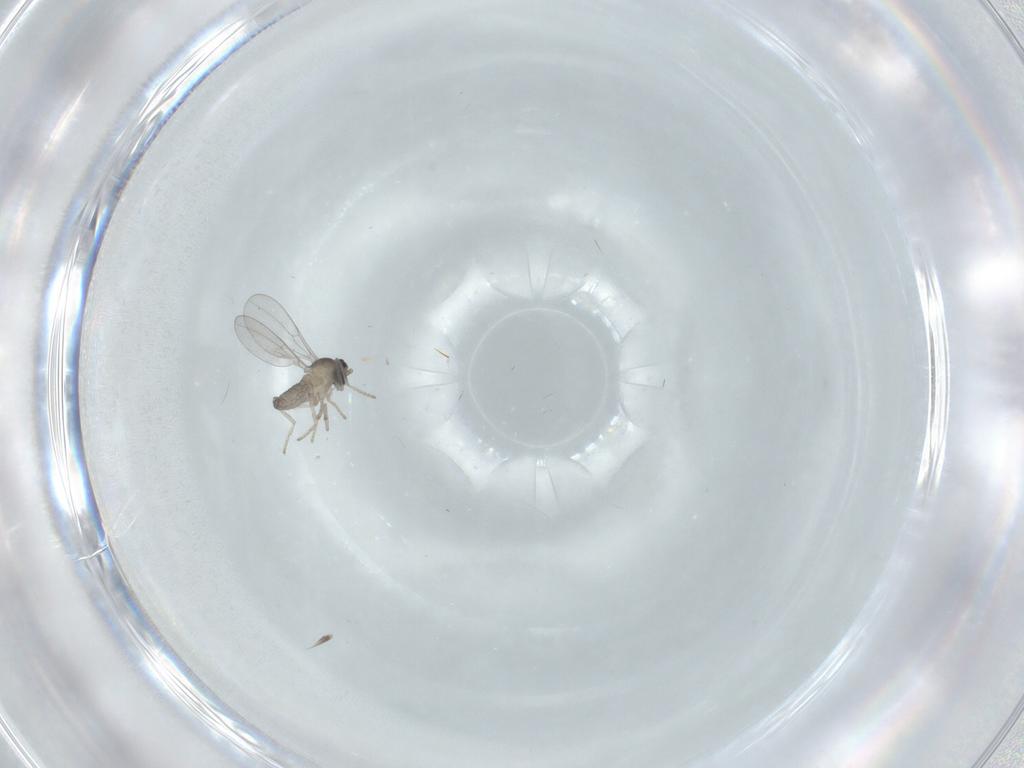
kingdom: Animalia
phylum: Arthropoda
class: Insecta
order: Diptera
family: Cecidomyiidae
